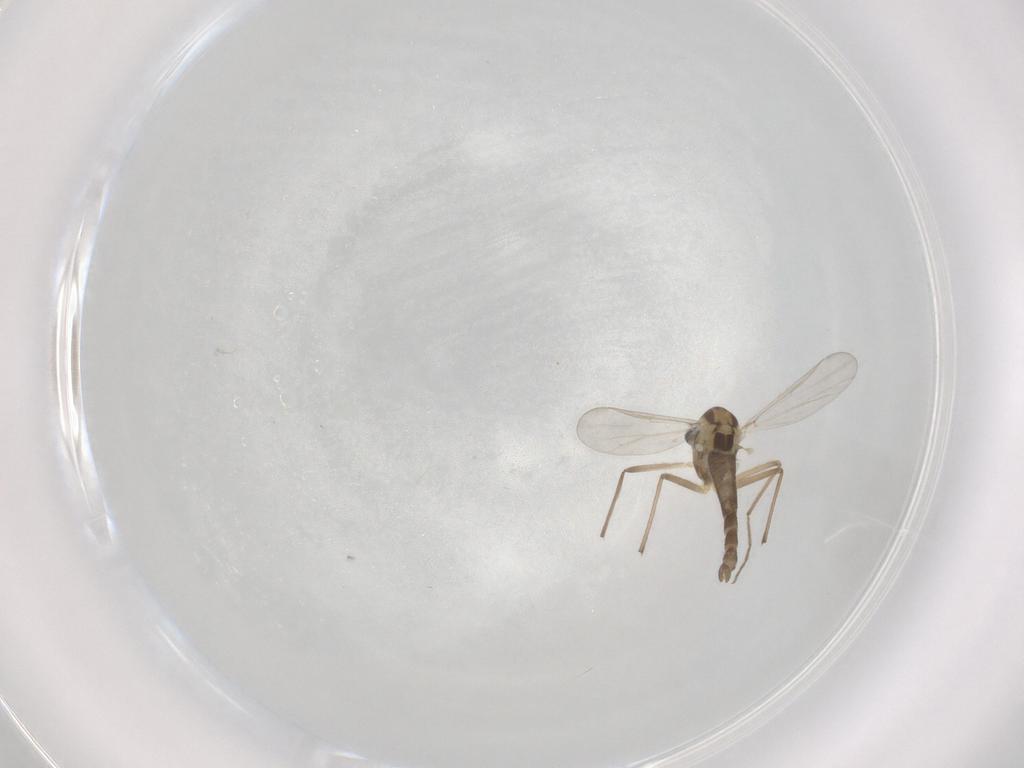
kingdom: Animalia
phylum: Arthropoda
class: Insecta
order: Diptera
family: Chironomidae
